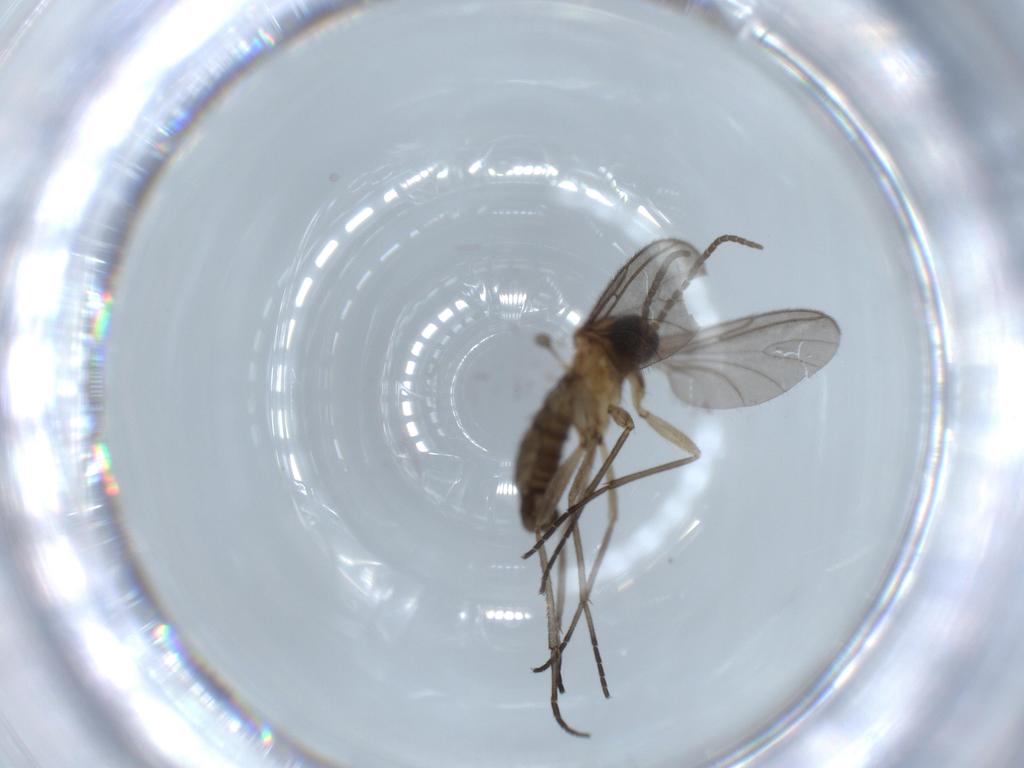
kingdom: Animalia
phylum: Arthropoda
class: Insecta
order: Diptera
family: Sciaridae
